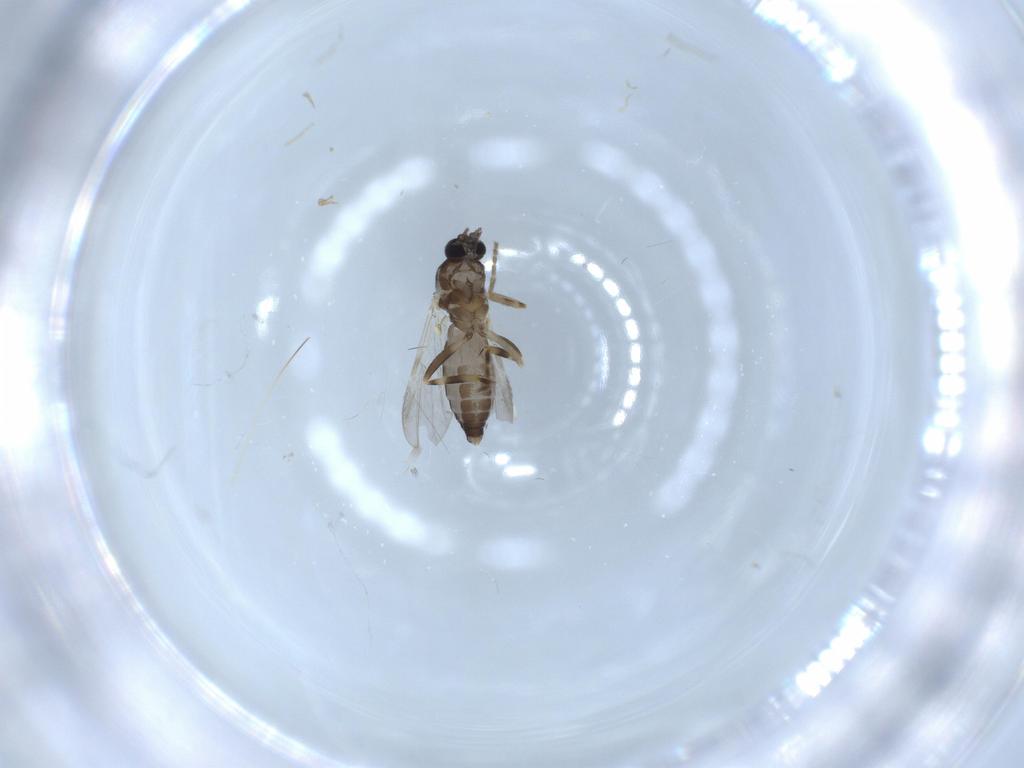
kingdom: Animalia
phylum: Arthropoda
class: Insecta
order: Diptera
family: Ceratopogonidae
